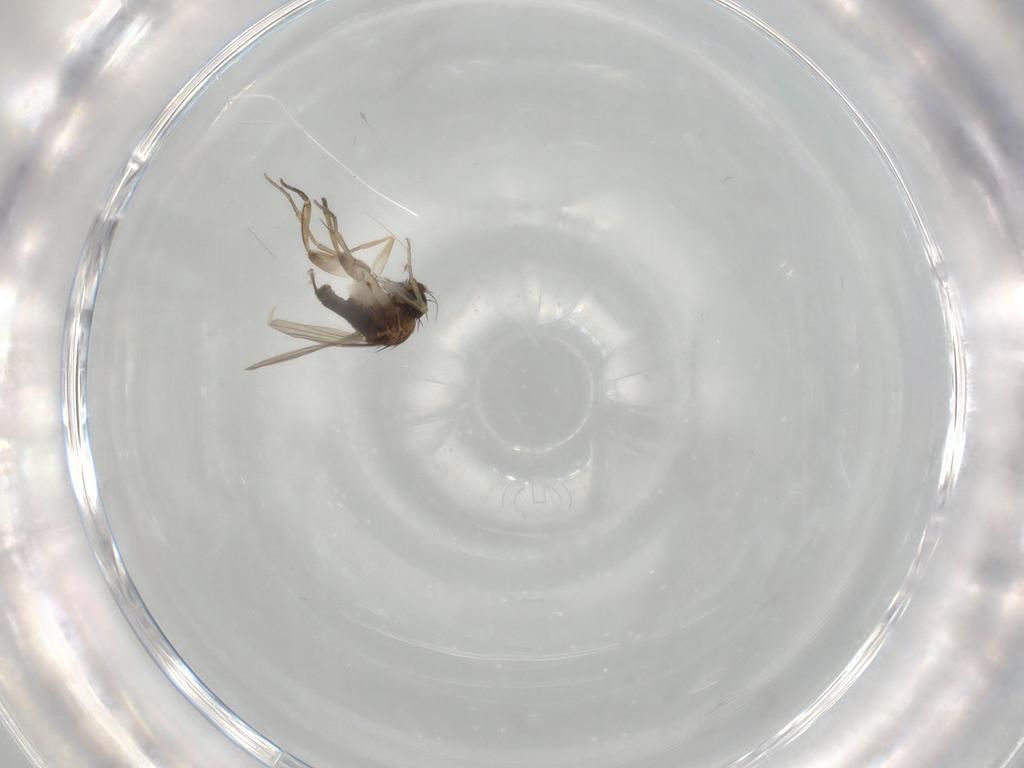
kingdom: Animalia
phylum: Arthropoda
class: Insecta
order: Diptera
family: Chironomidae
